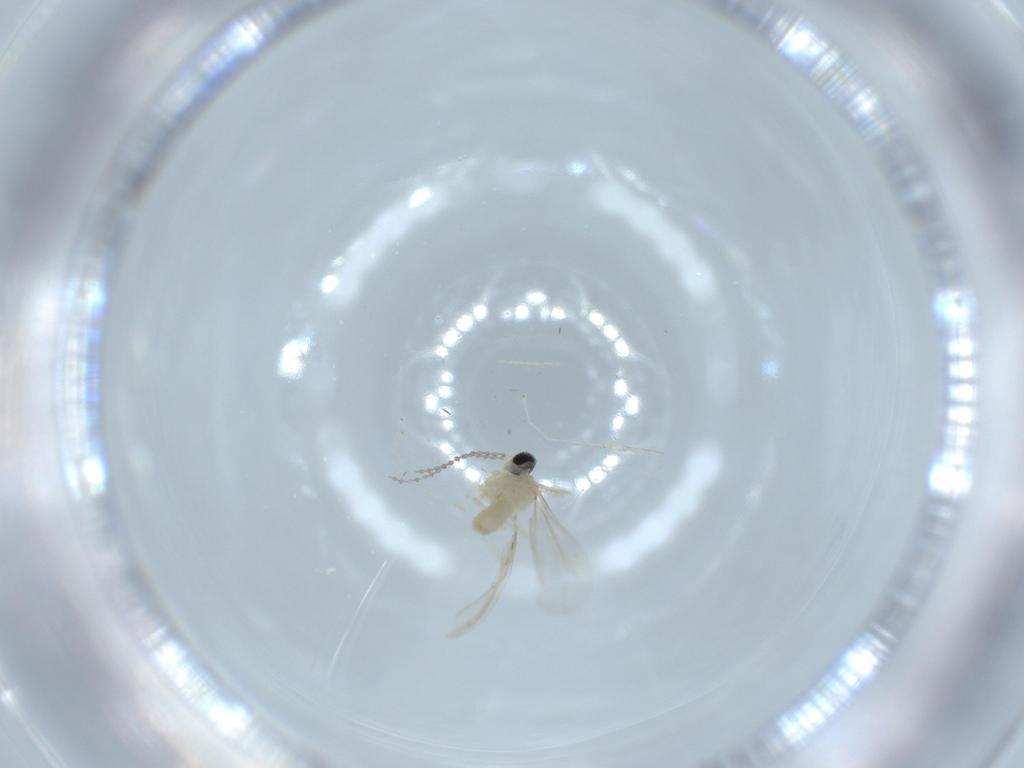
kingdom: Animalia
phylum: Arthropoda
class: Insecta
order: Diptera
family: Cecidomyiidae
